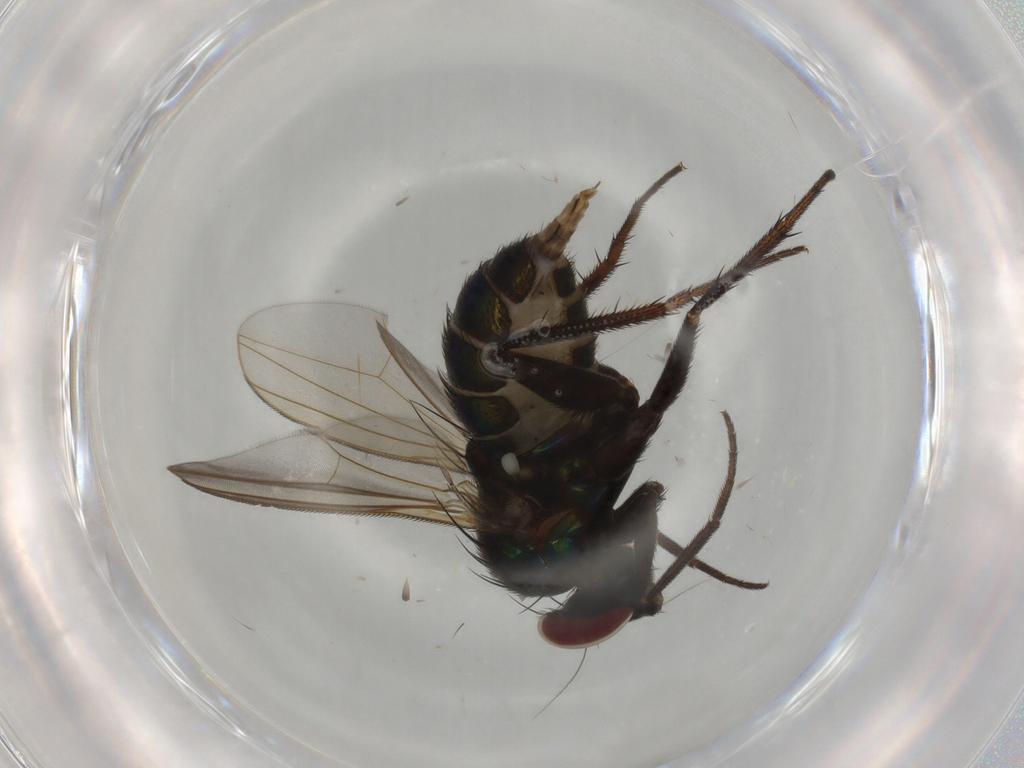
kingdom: Animalia
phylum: Arthropoda
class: Insecta
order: Diptera
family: Dolichopodidae
